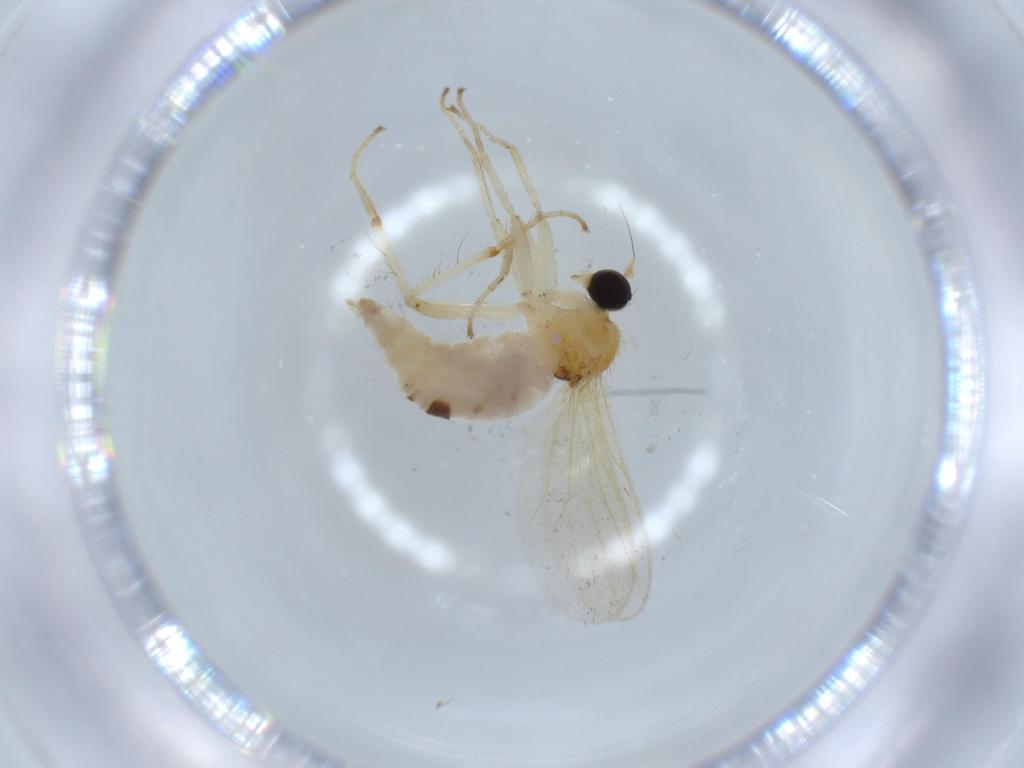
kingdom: Animalia
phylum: Arthropoda
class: Insecta
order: Diptera
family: Hybotidae
